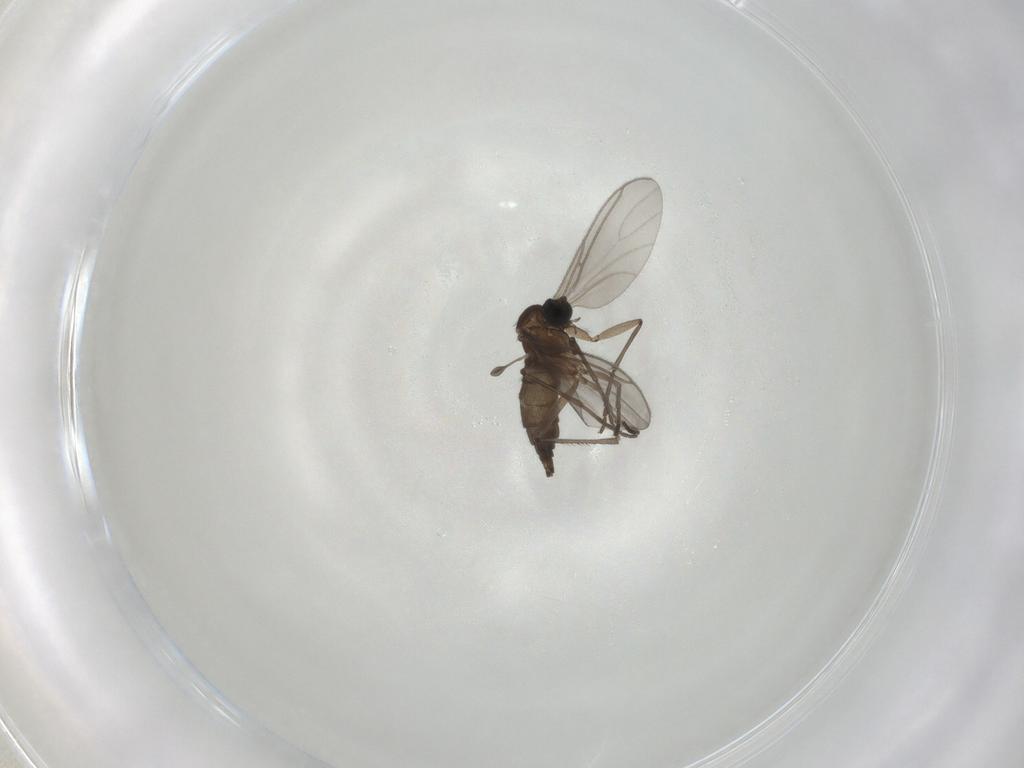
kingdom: Animalia
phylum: Arthropoda
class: Insecta
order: Diptera
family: Sciaridae
